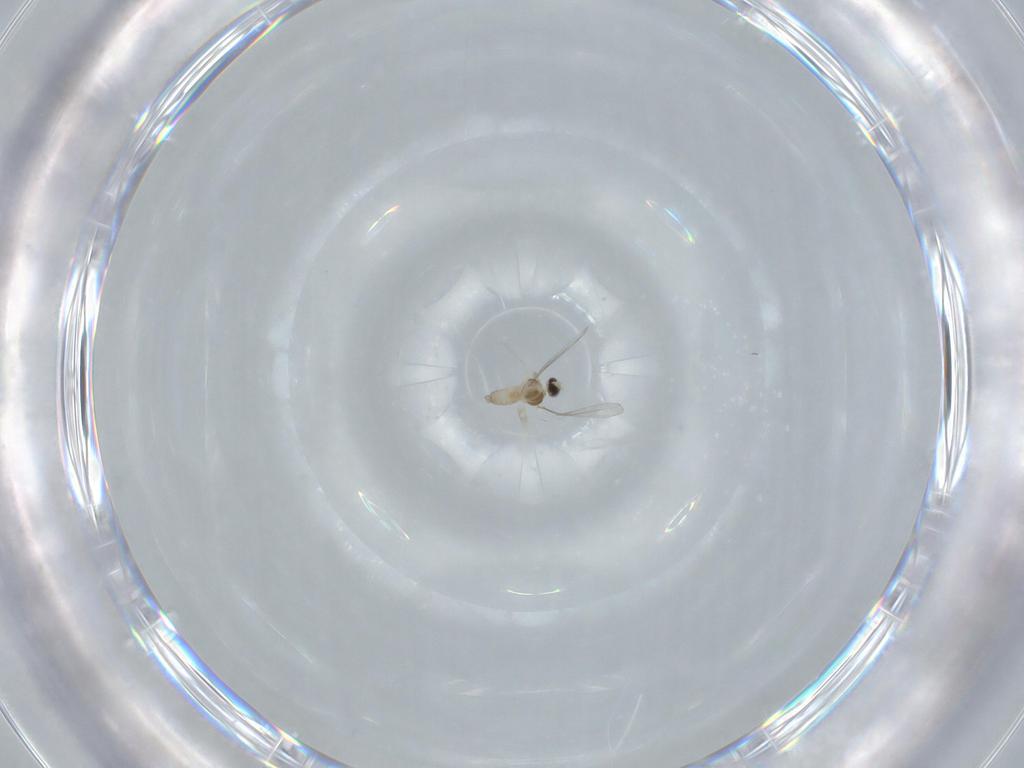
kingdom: Animalia
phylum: Arthropoda
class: Insecta
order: Diptera
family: Cecidomyiidae
